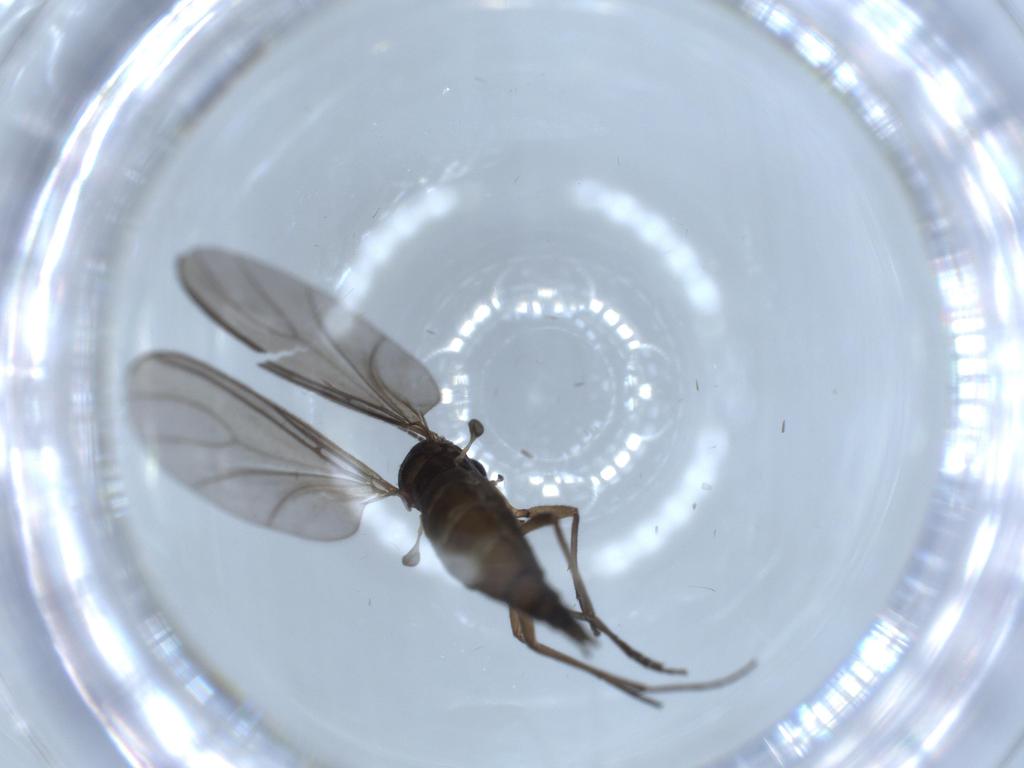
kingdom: Animalia
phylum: Arthropoda
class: Insecta
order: Diptera
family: Sciaridae
